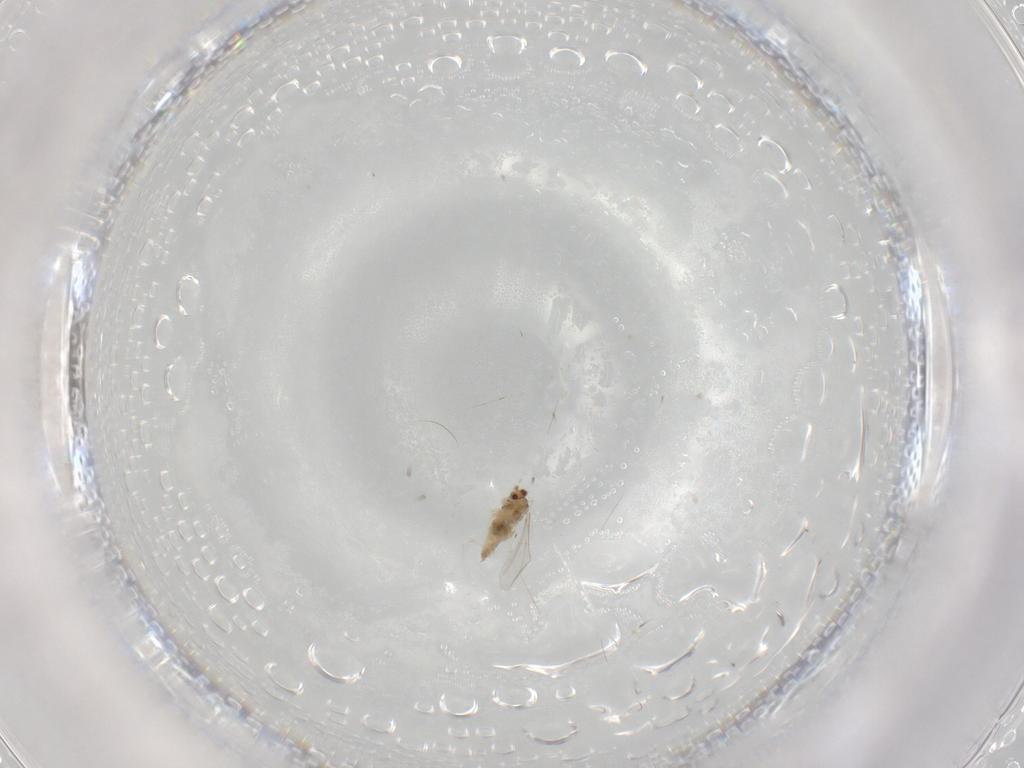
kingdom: Animalia
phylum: Arthropoda
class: Insecta
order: Diptera
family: Cecidomyiidae
